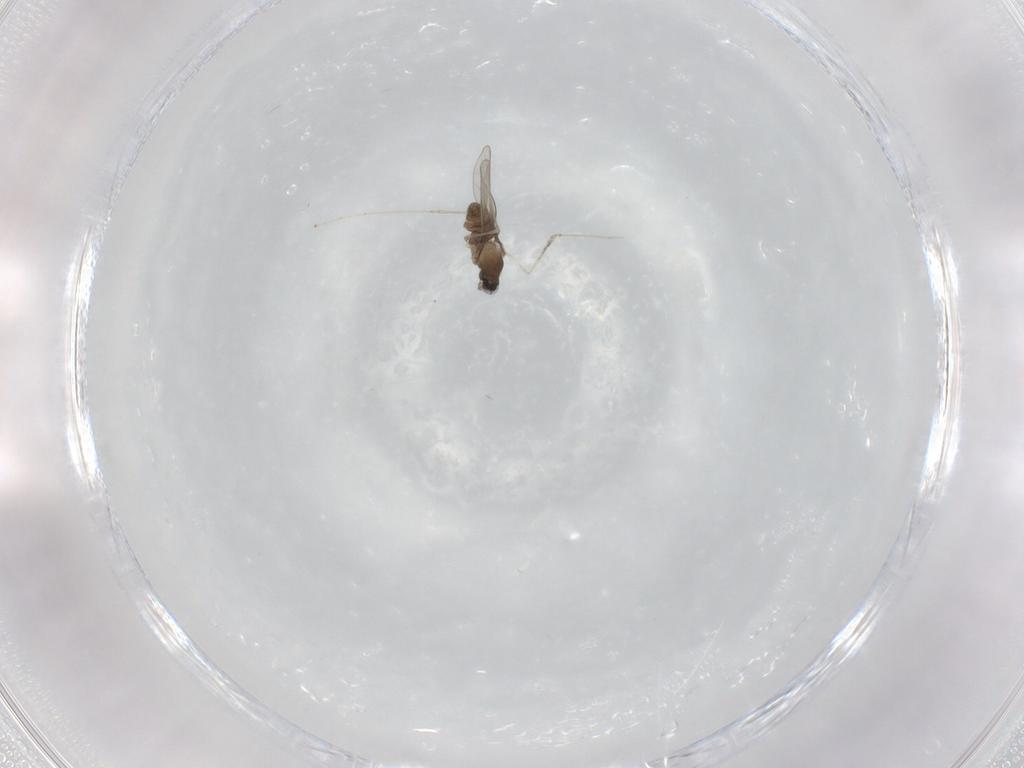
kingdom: Animalia
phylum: Arthropoda
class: Insecta
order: Diptera
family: Cecidomyiidae
